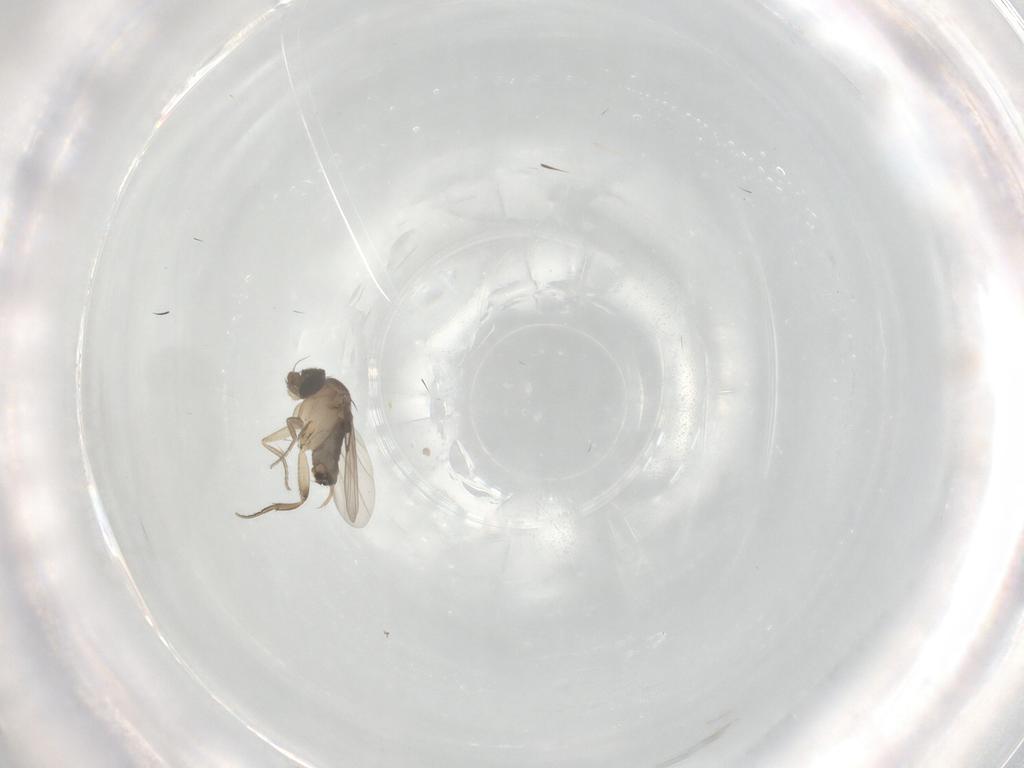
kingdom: Animalia
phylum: Arthropoda
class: Insecta
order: Diptera
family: Phoridae
